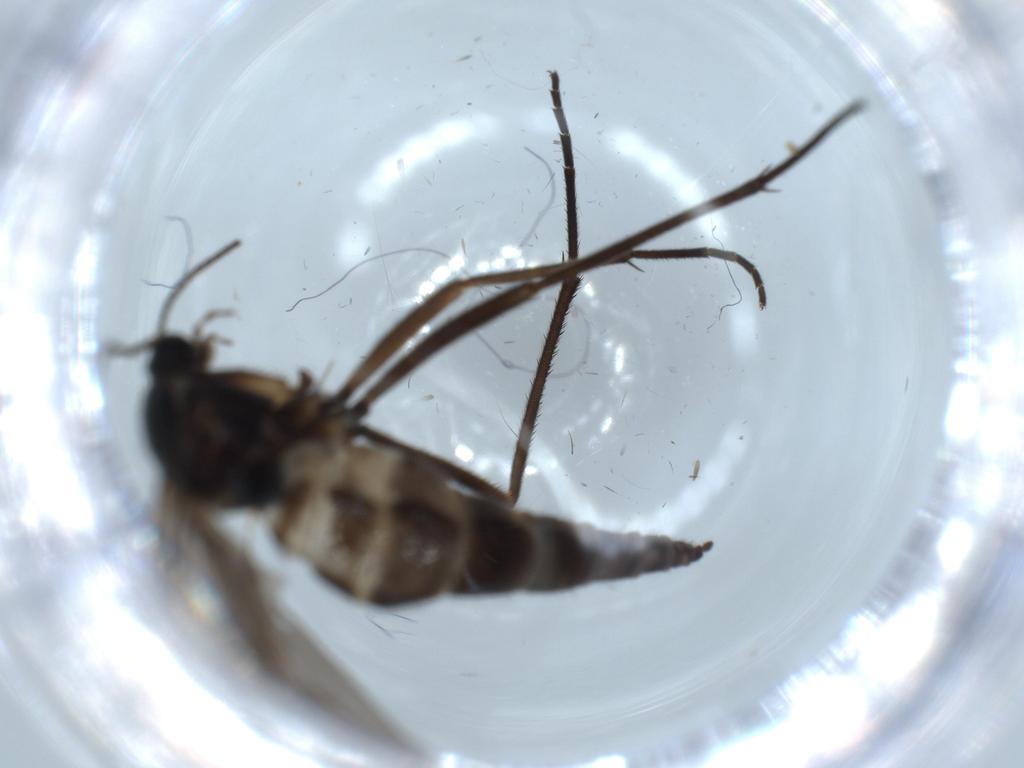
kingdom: Animalia
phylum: Arthropoda
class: Insecta
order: Diptera
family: Sciaridae
